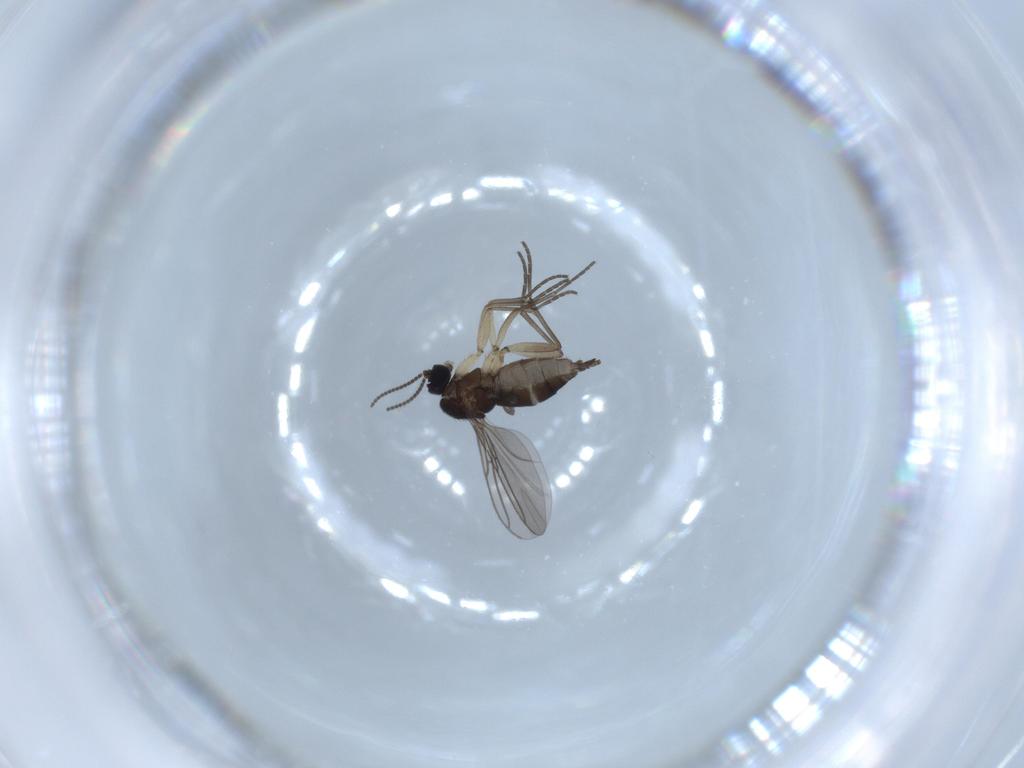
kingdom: Animalia
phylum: Arthropoda
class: Insecta
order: Diptera
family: Sciaridae
